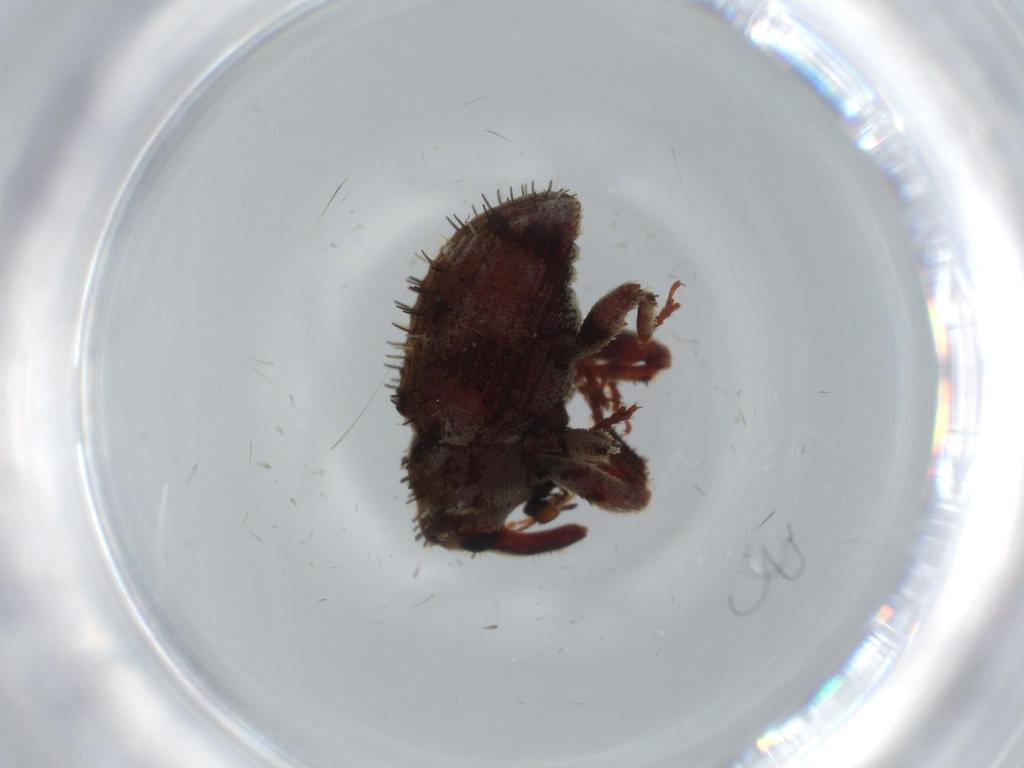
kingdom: Animalia
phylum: Arthropoda
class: Insecta
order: Coleoptera
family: Curculionidae
